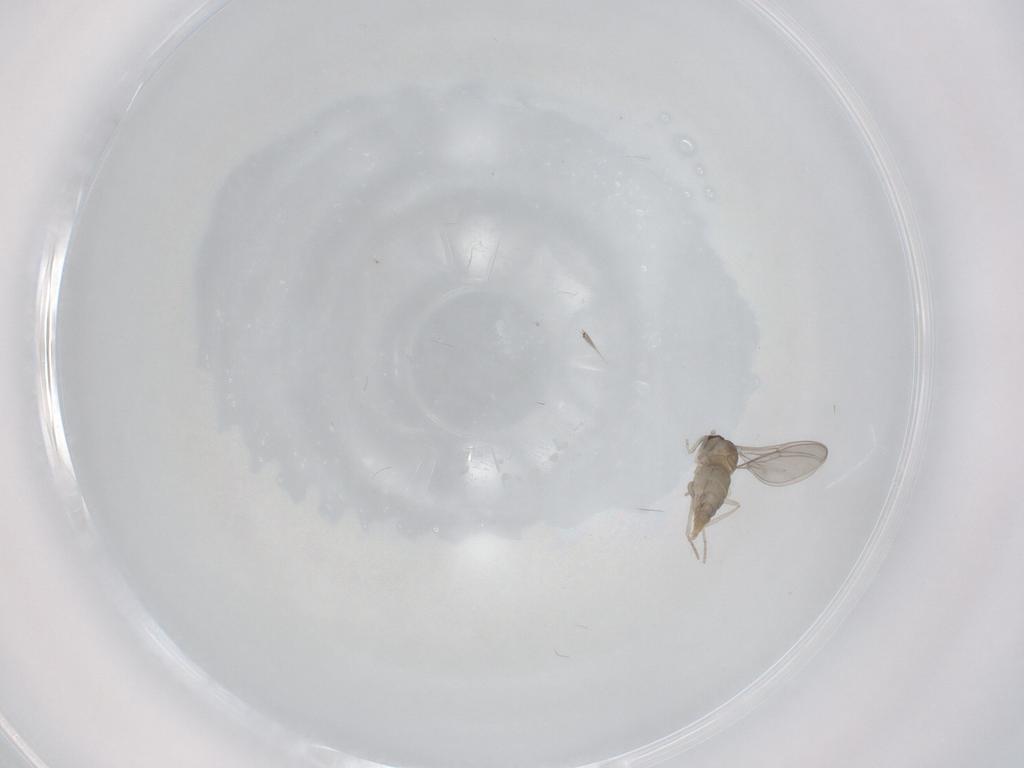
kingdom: Animalia
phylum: Arthropoda
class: Insecta
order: Diptera
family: Cecidomyiidae
